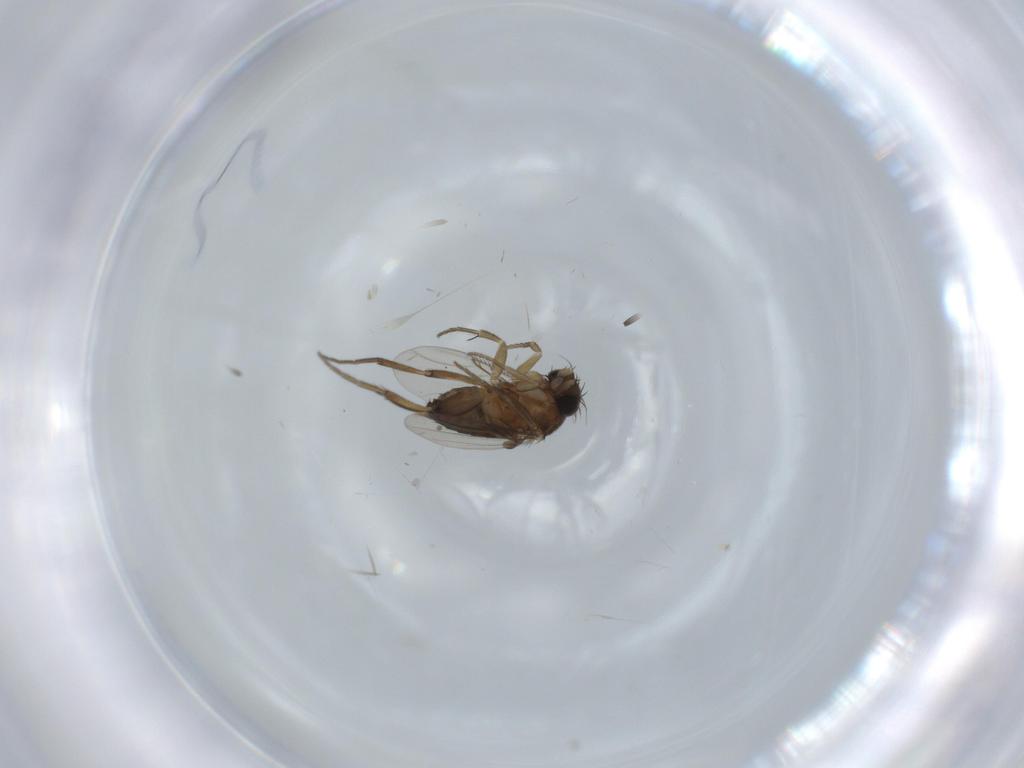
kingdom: Animalia
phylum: Arthropoda
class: Insecta
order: Diptera
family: Phoridae
